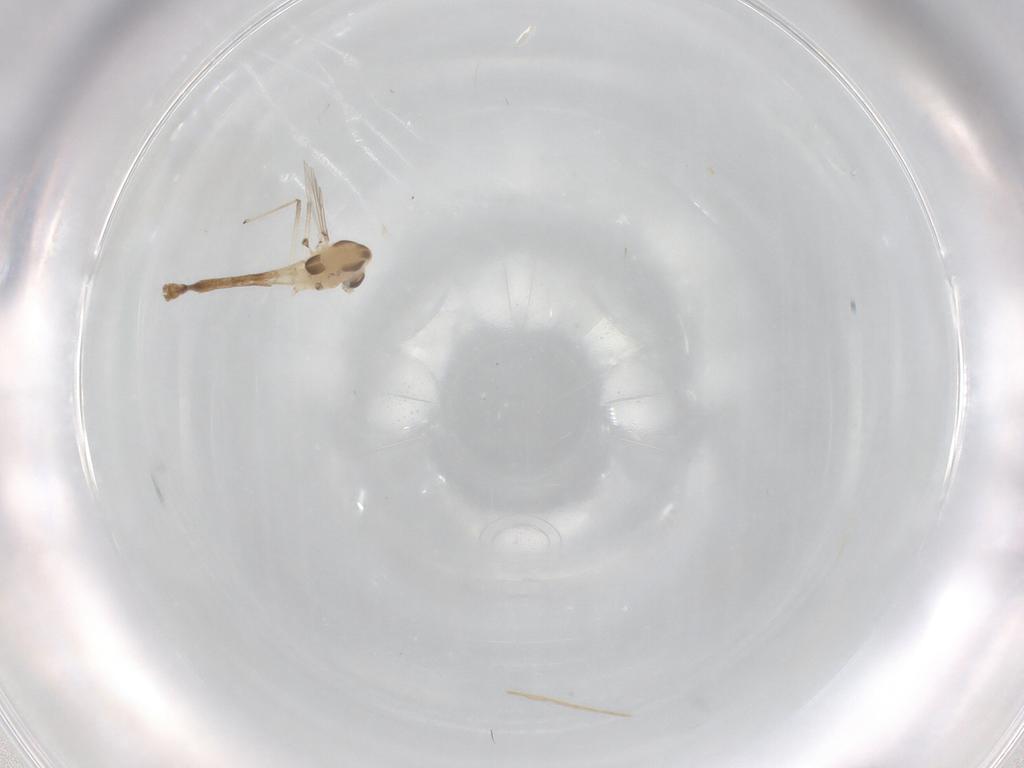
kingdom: Animalia
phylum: Arthropoda
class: Insecta
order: Diptera
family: Chironomidae
